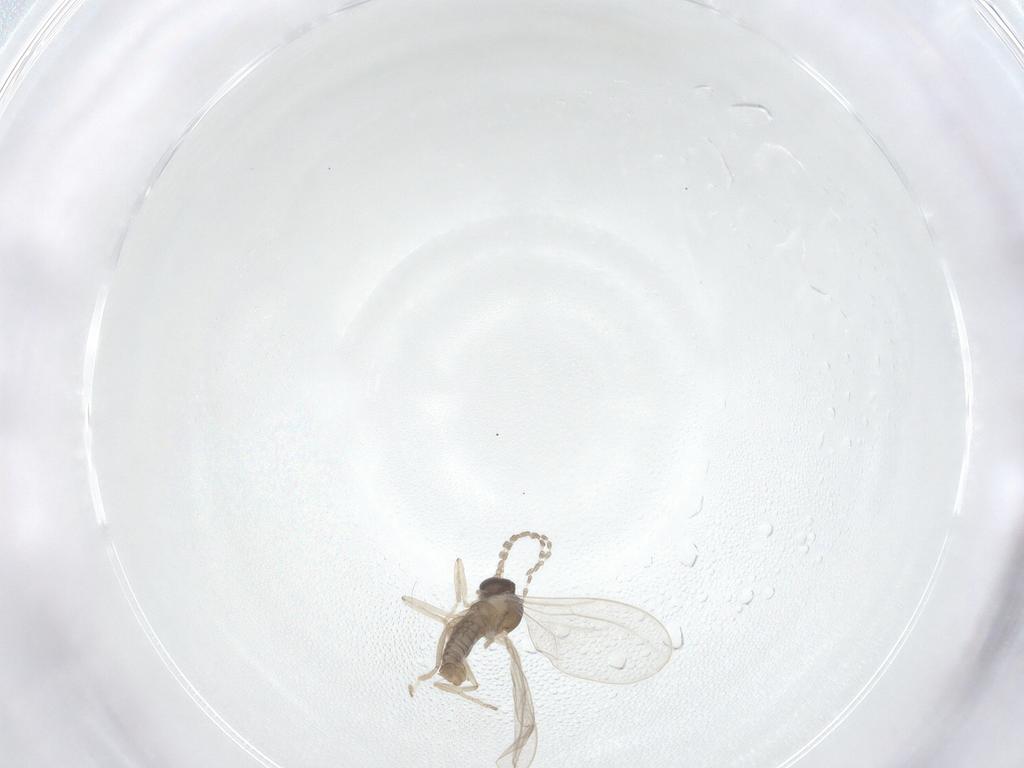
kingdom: Animalia
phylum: Arthropoda
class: Insecta
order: Diptera
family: Cecidomyiidae
